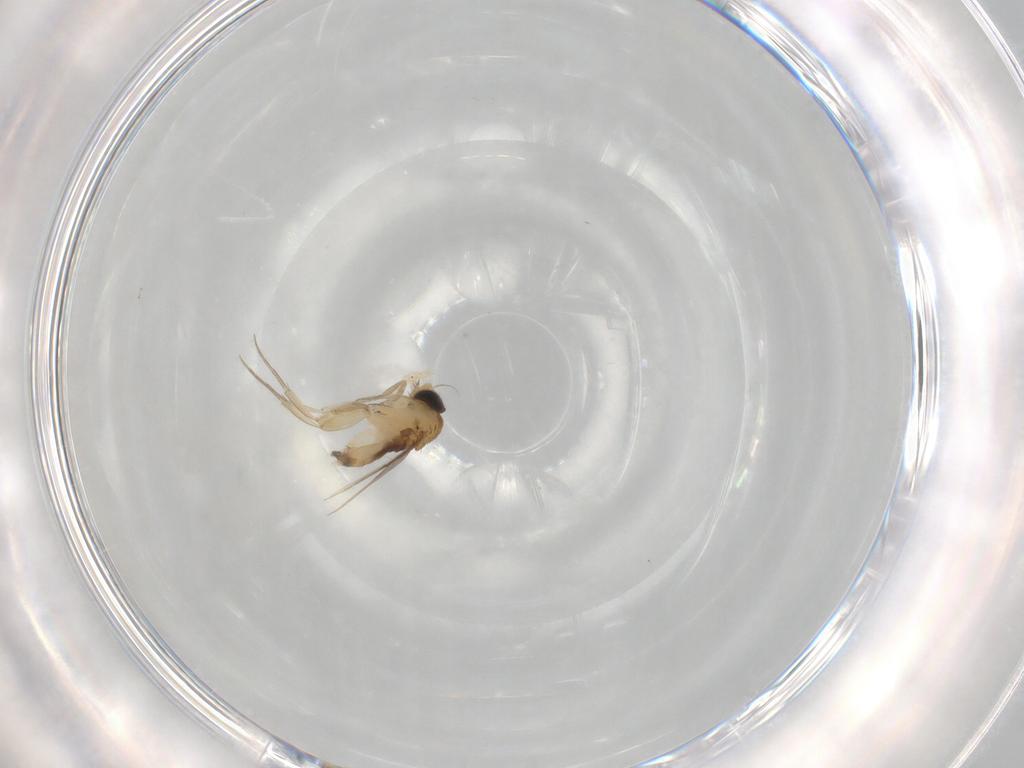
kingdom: Animalia
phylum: Arthropoda
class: Insecta
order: Diptera
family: Phoridae
